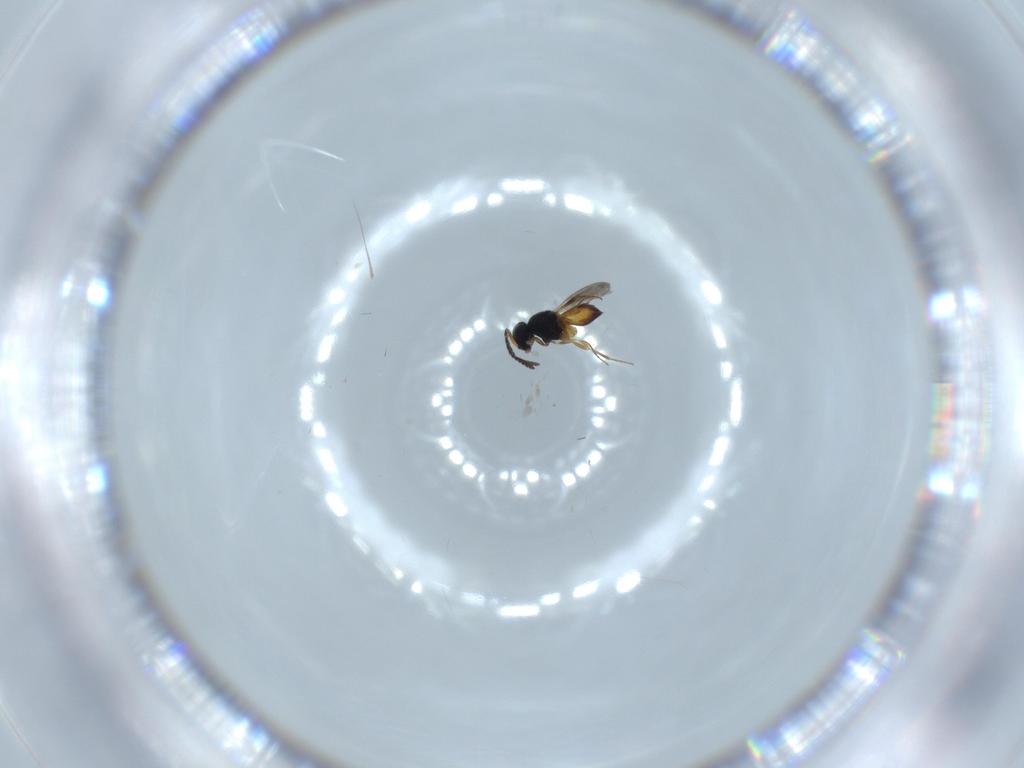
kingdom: Animalia
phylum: Arthropoda
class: Insecta
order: Hymenoptera
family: Scelionidae
